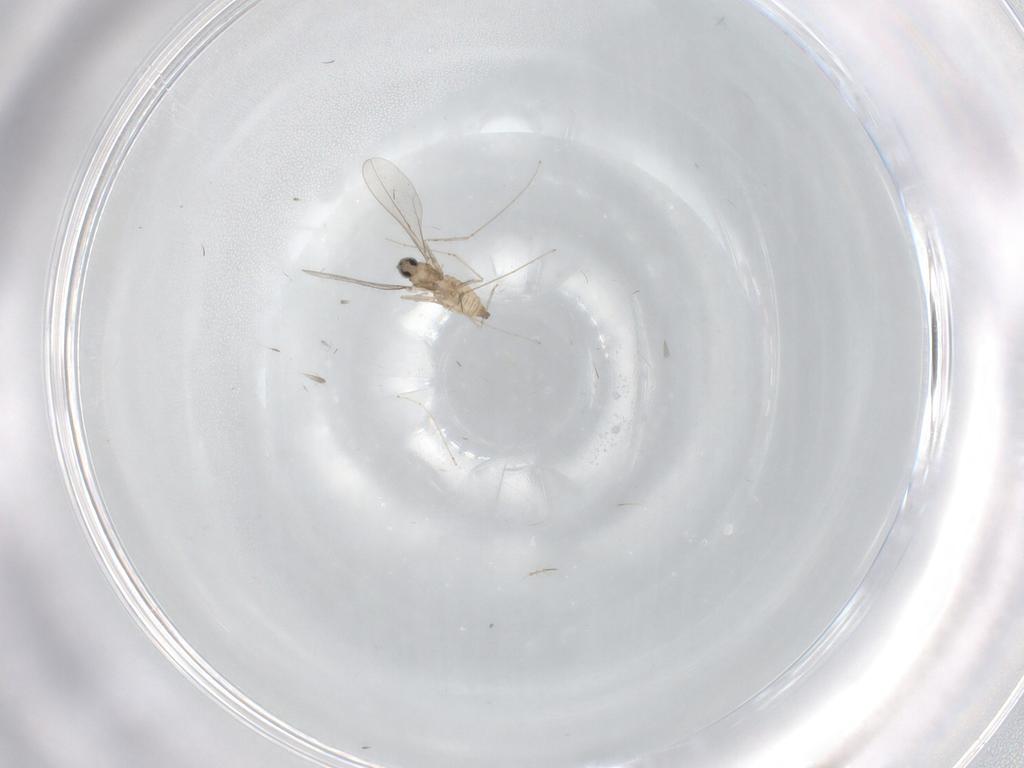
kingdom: Animalia
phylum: Arthropoda
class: Insecta
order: Diptera
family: Chironomidae
